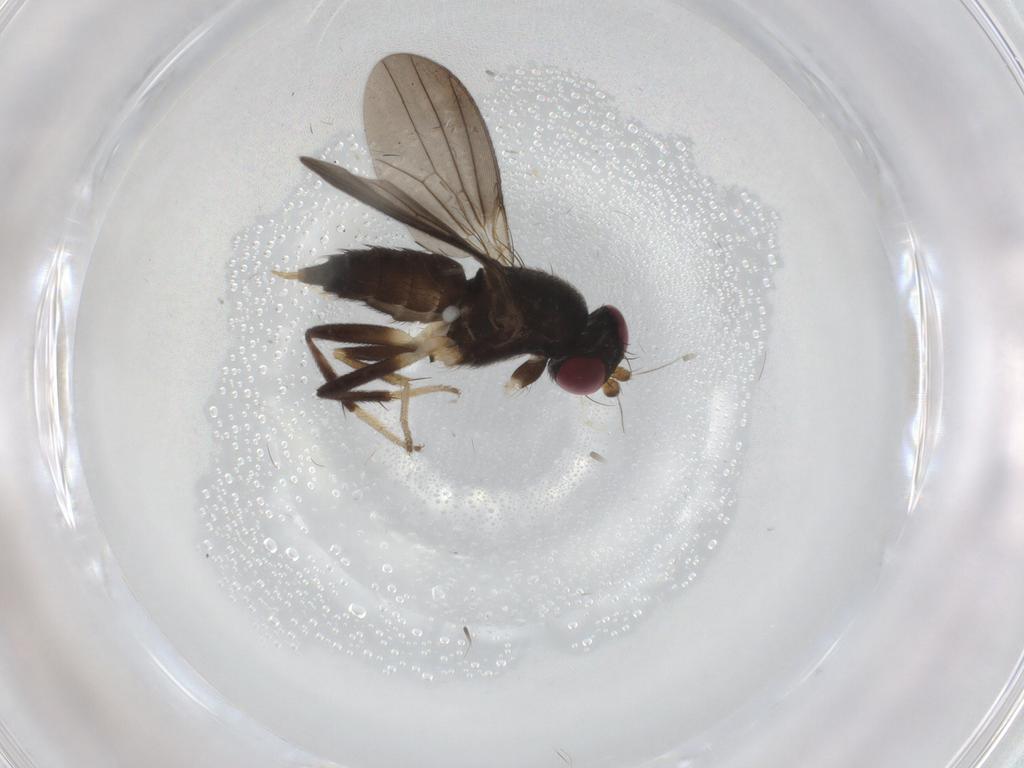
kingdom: Animalia
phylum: Arthropoda
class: Insecta
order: Diptera
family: Clusiidae
